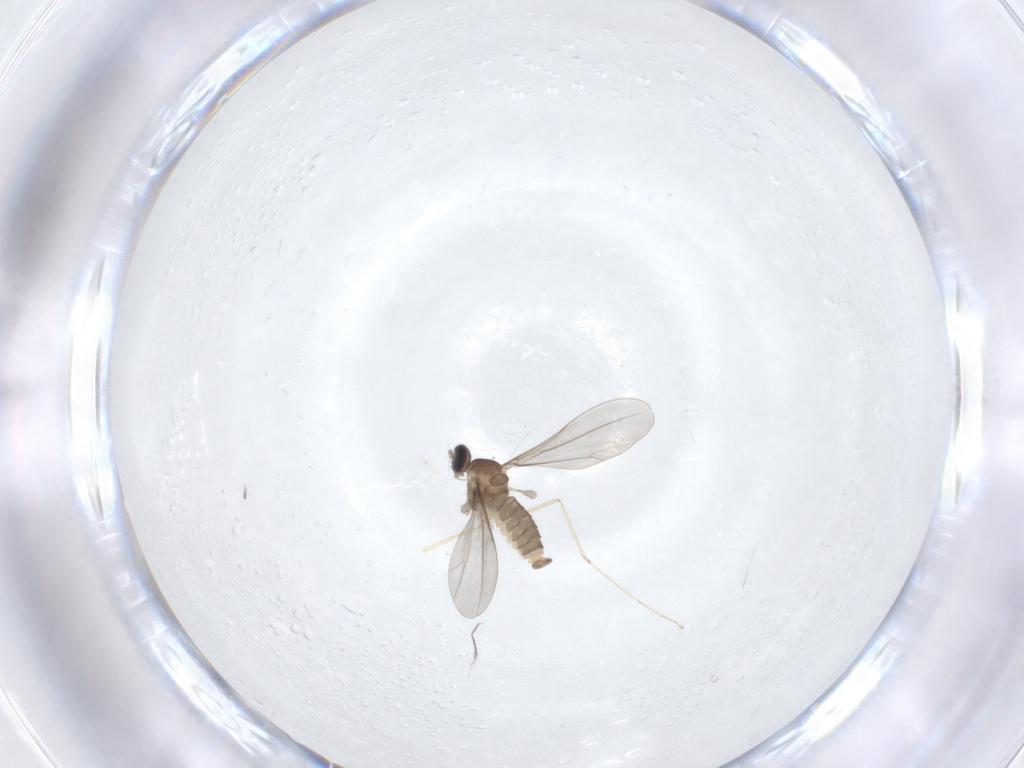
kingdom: Animalia
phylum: Arthropoda
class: Insecta
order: Diptera
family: Cecidomyiidae
